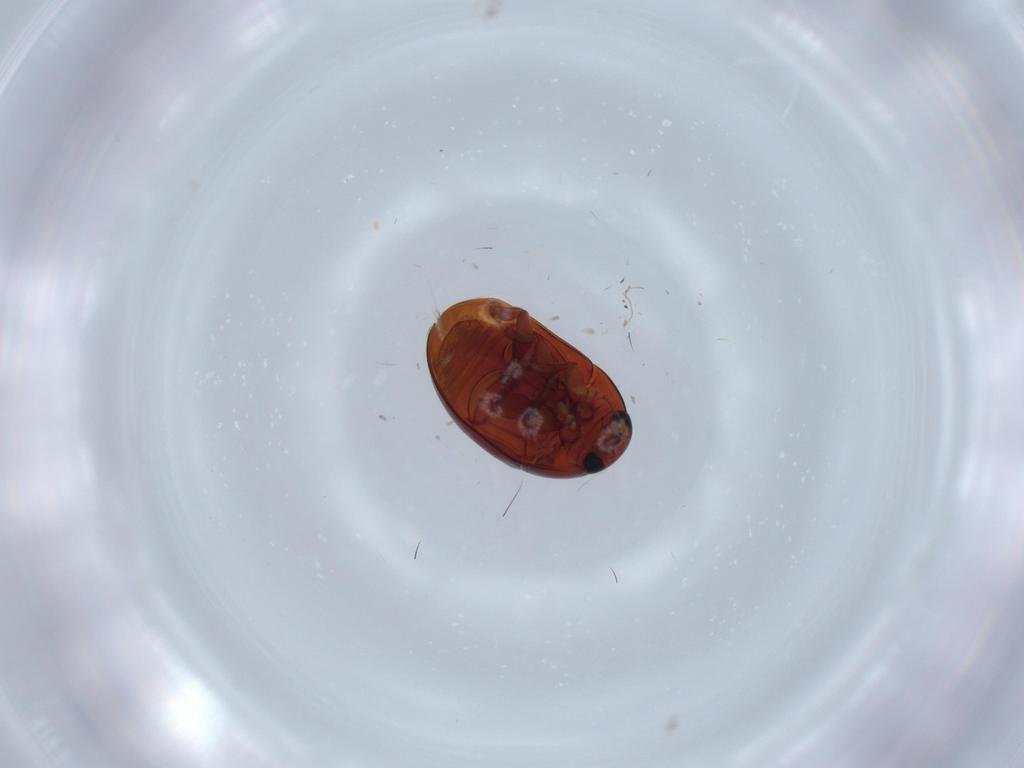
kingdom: Animalia
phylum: Arthropoda
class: Insecta
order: Coleoptera
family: Phalacridae
